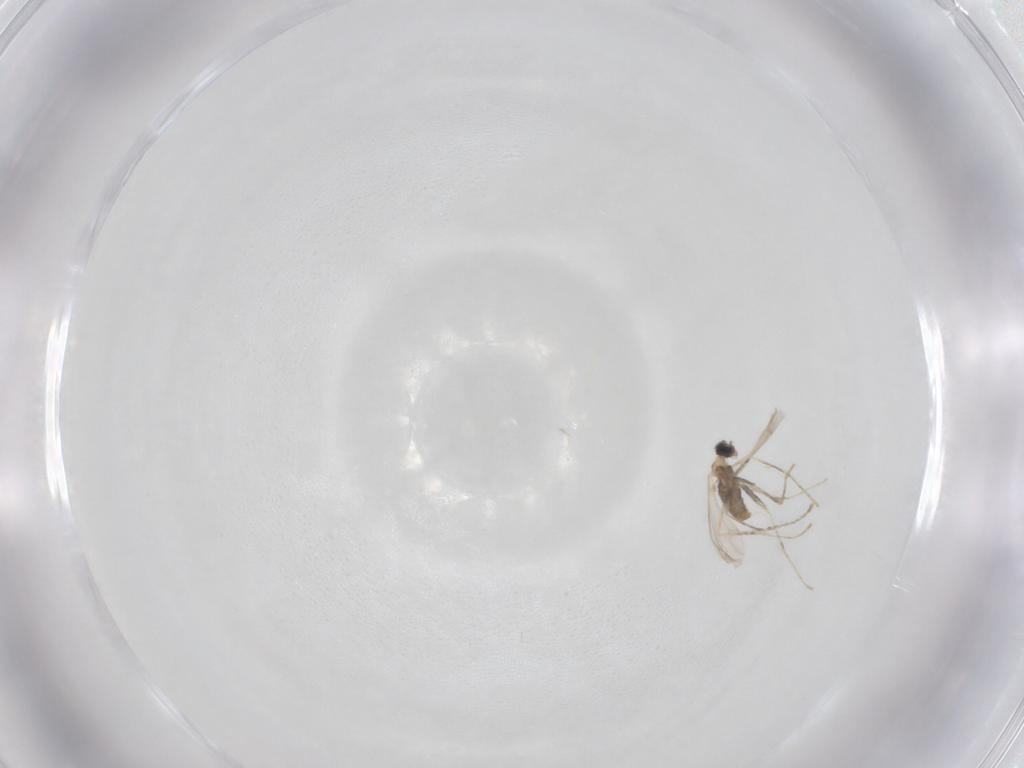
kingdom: Animalia
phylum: Arthropoda
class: Insecta
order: Diptera
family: Cecidomyiidae
